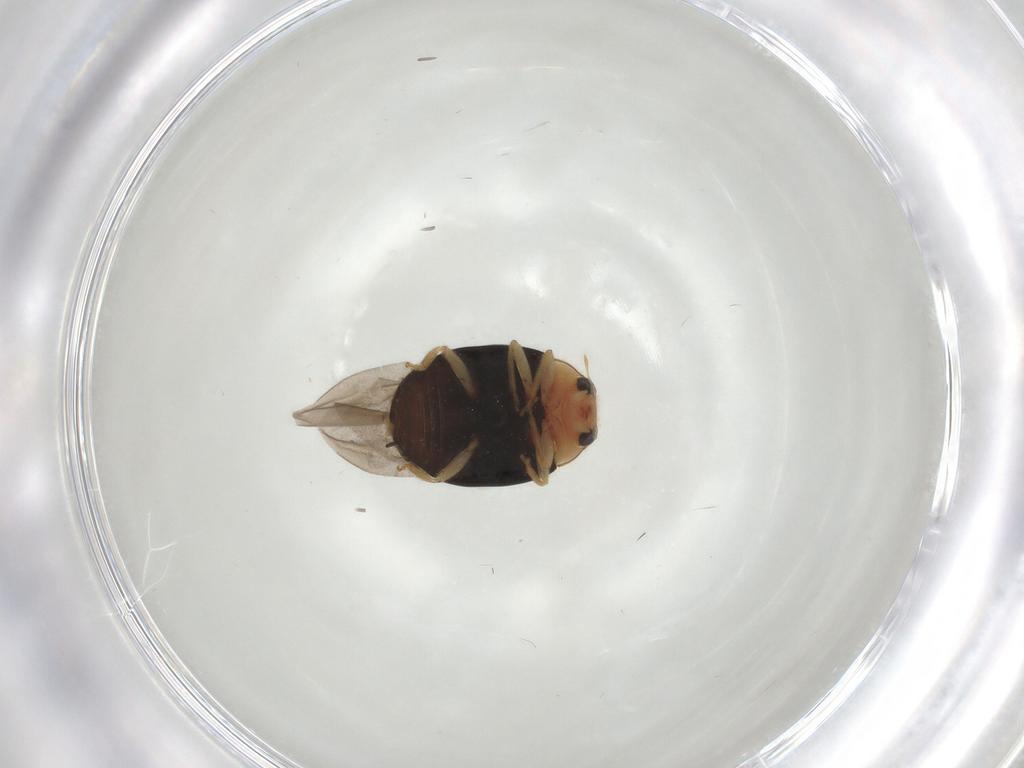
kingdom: Animalia
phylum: Arthropoda
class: Insecta
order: Coleoptera
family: Coccinellidae
